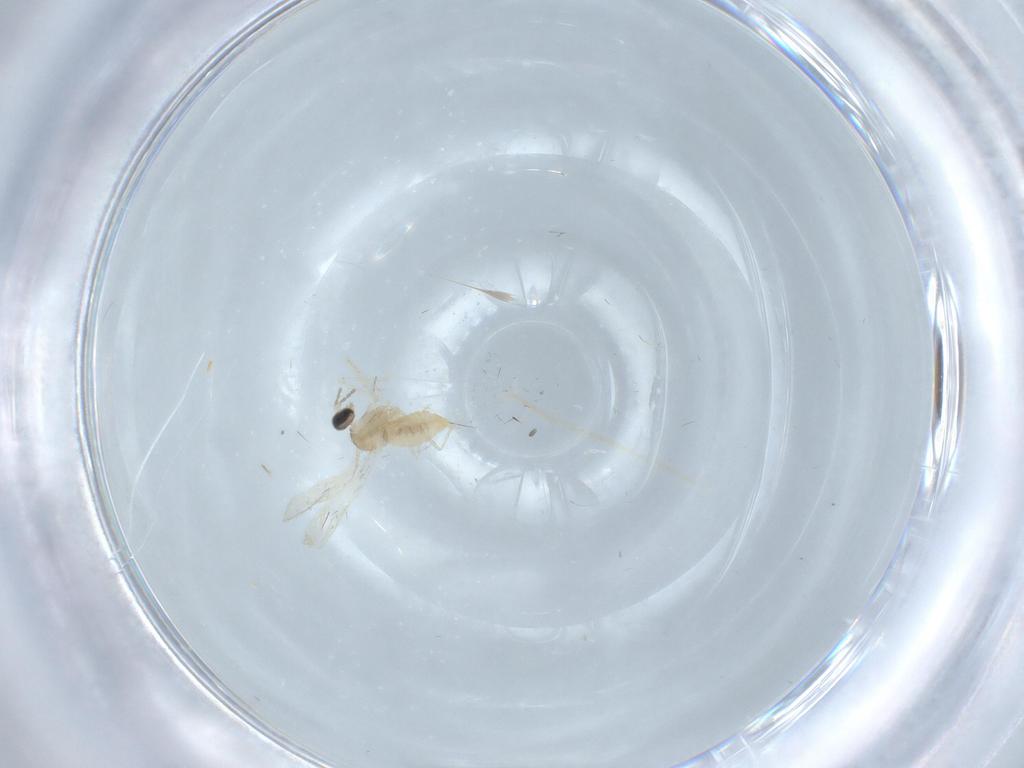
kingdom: Animalia
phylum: Arthropoda
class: Insecta
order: Diptera
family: Cecidomyiidae
